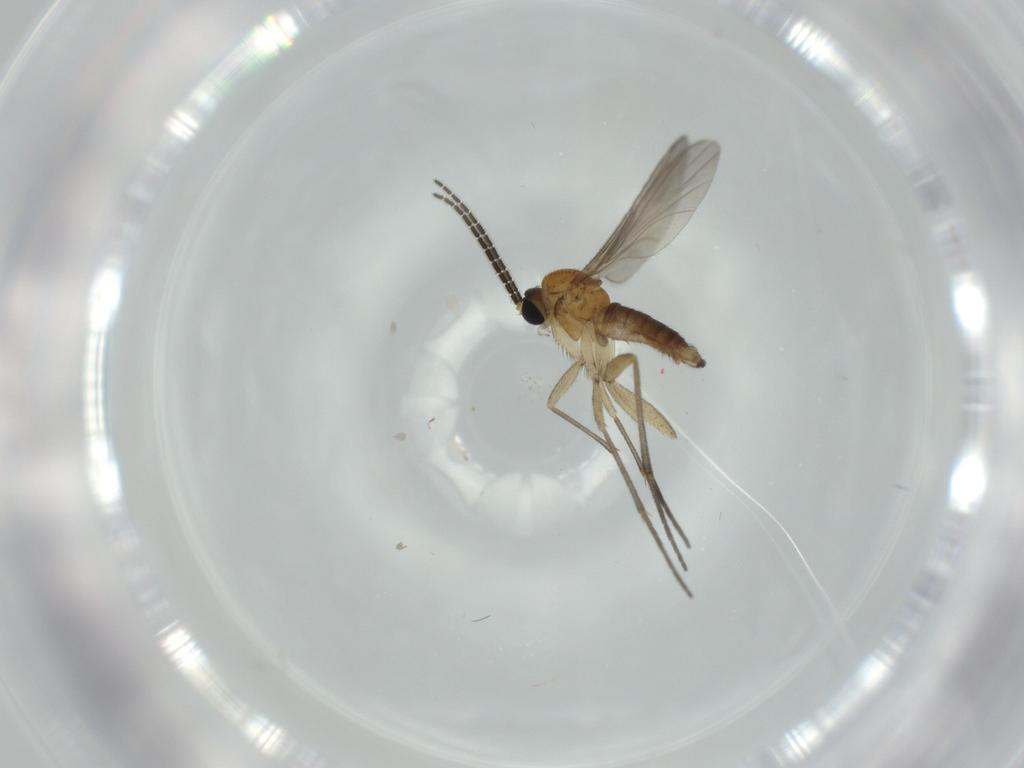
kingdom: Animalia
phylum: Arthropoda
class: Insecta
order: Diptera
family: Sciaridae
